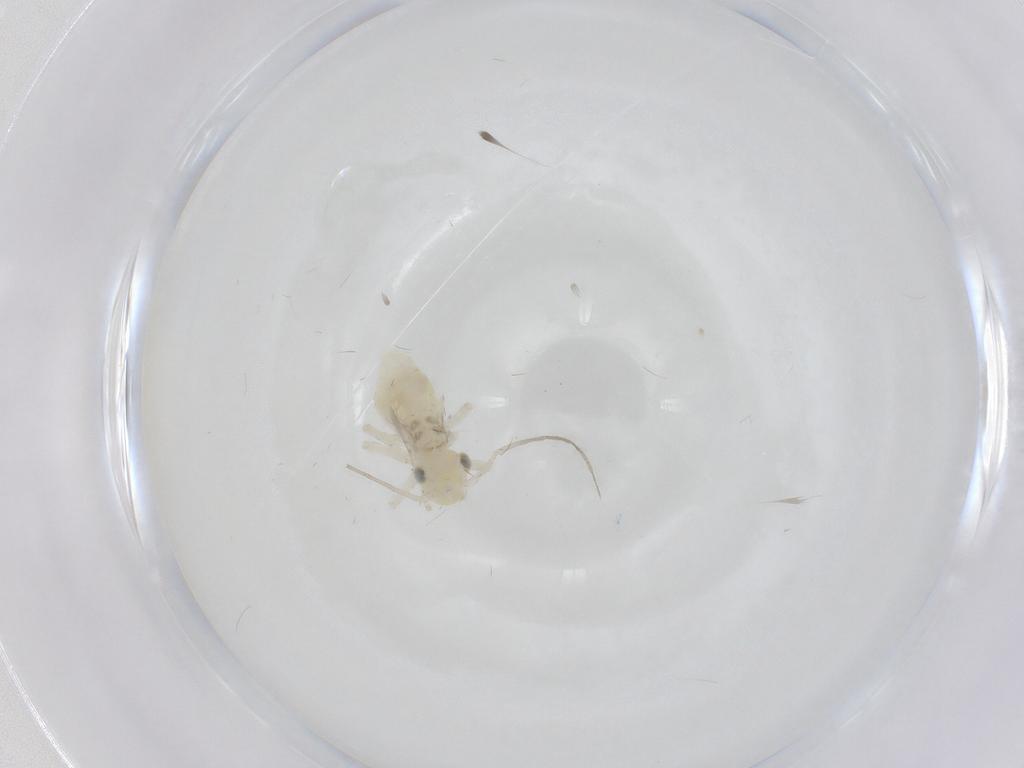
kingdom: Animalia
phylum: Arthropoda
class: Insecta
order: Psocodea
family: Caeciliusidae
